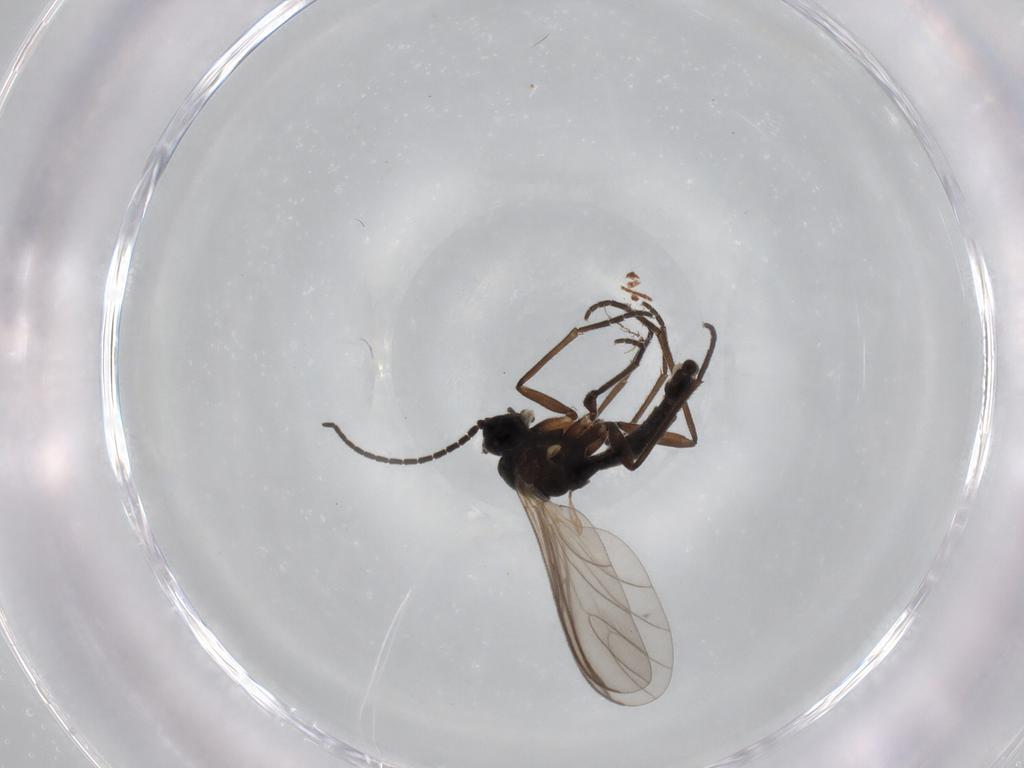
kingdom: Animalia
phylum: Arthropoda
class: Insecta
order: Diptera
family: Sciaridae
